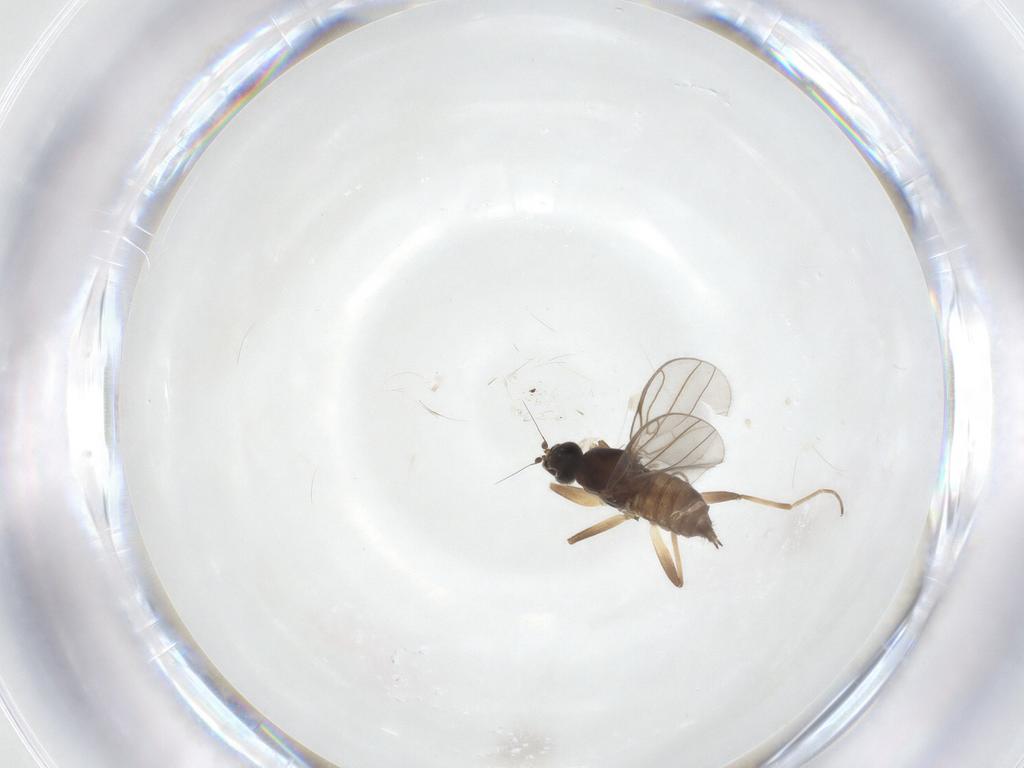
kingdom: Animalia
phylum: Arthropoda
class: Insecta
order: Diptera
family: Hybotidae
